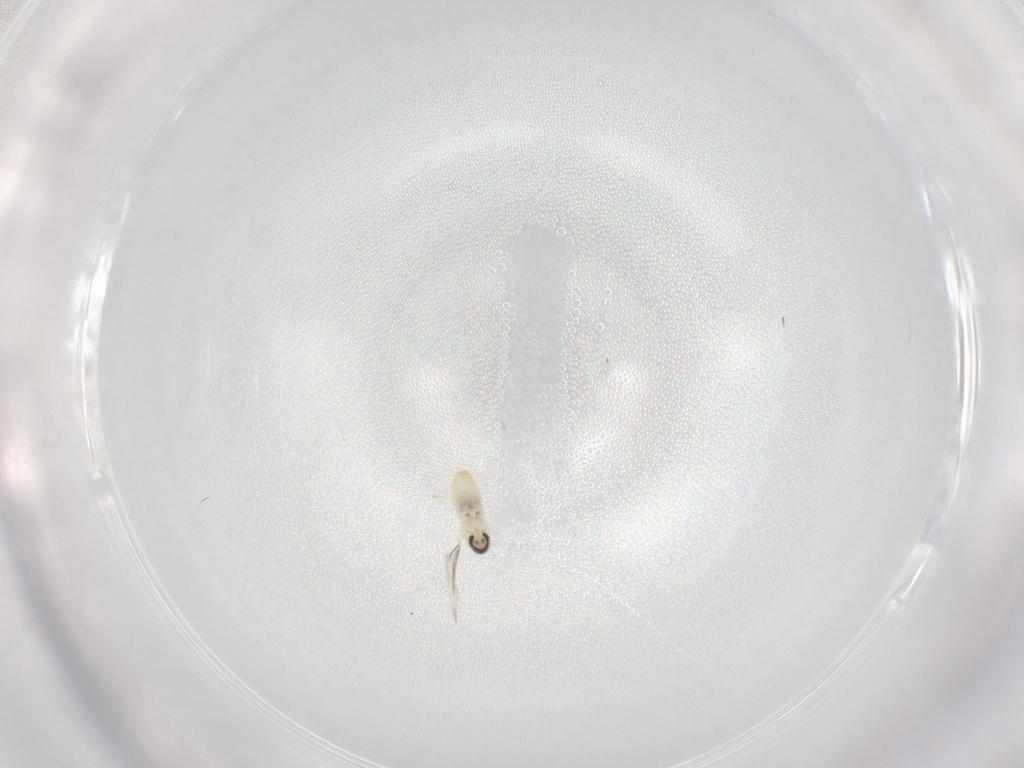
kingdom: Animalia
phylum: Arthropoda
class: Insecta
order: Diptera
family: Cecidomyiidae
